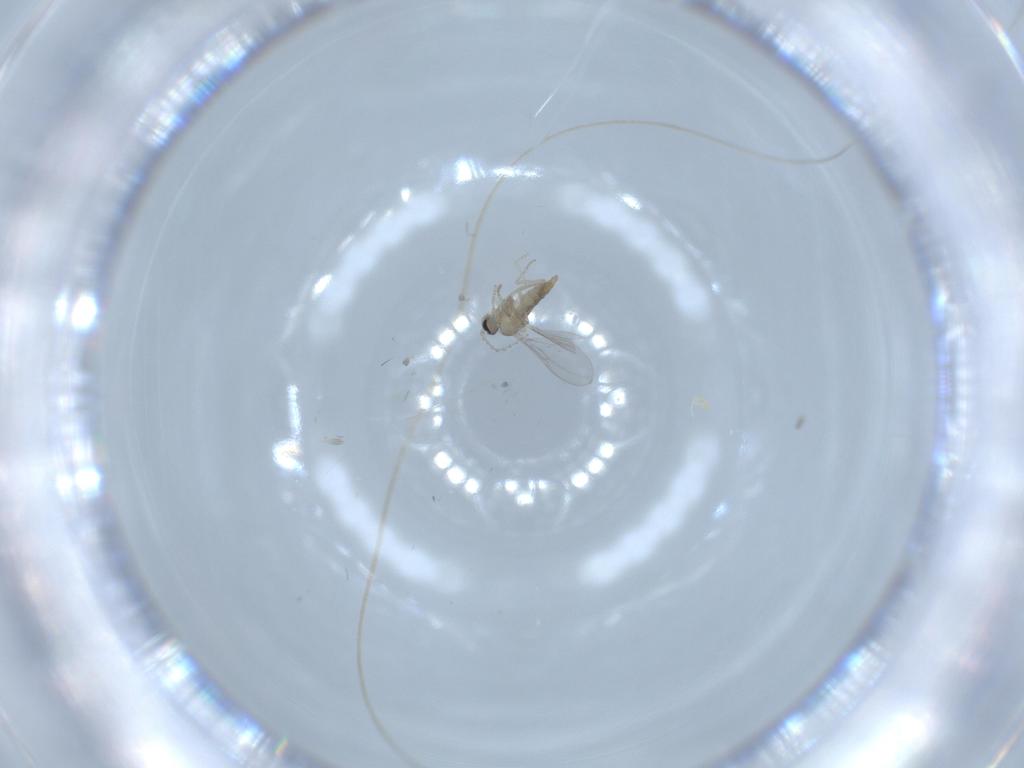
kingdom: Animalia
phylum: Arthropoda
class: Insecta
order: Diptera
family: Cecidomyiidae
